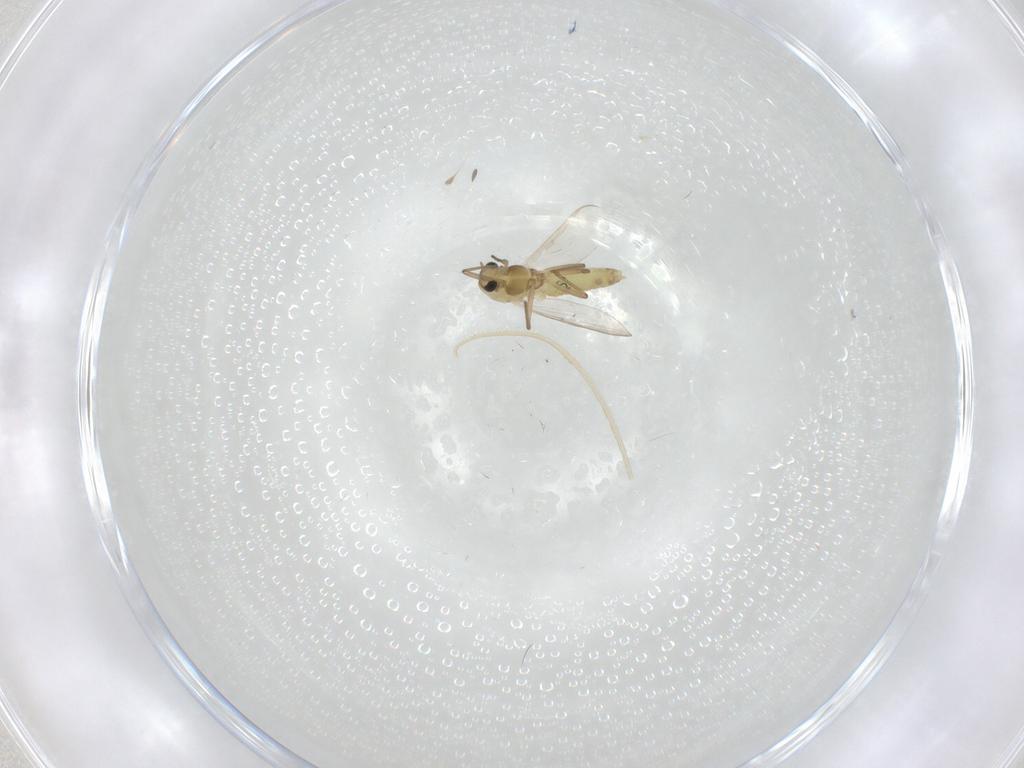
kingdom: Animalia
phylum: Arthropoda
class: Insecta
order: Diptera
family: Chironomidae
